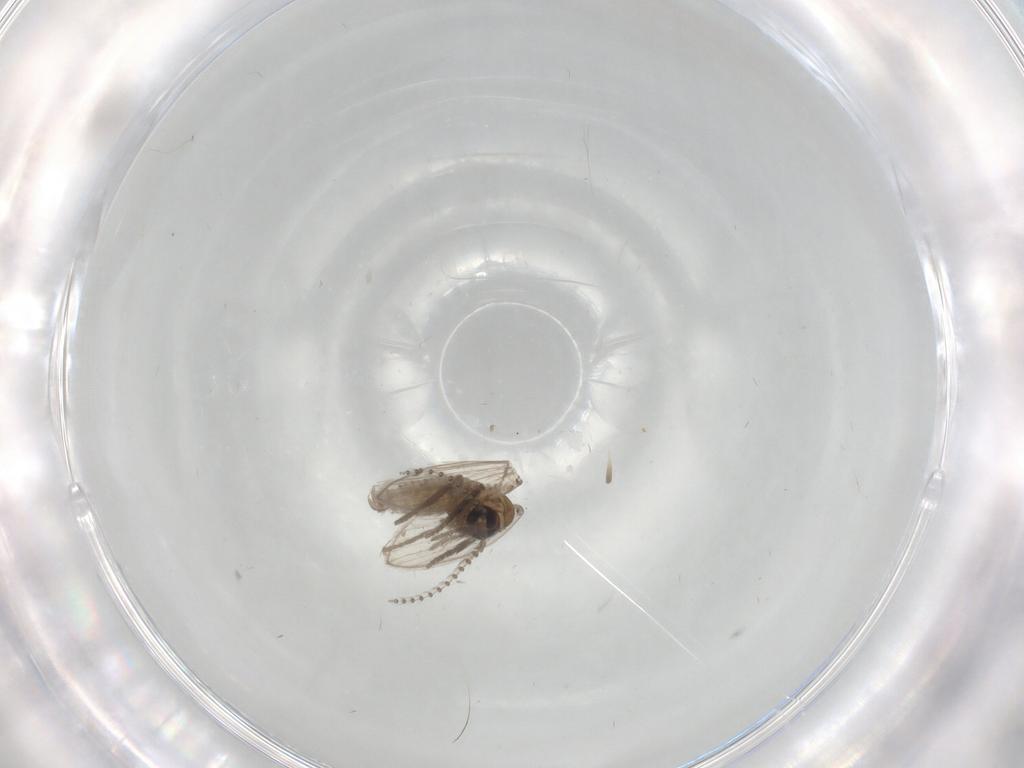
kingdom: Animalia
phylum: Arthropoda
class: Insecta
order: Diptera
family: Psychodidae
